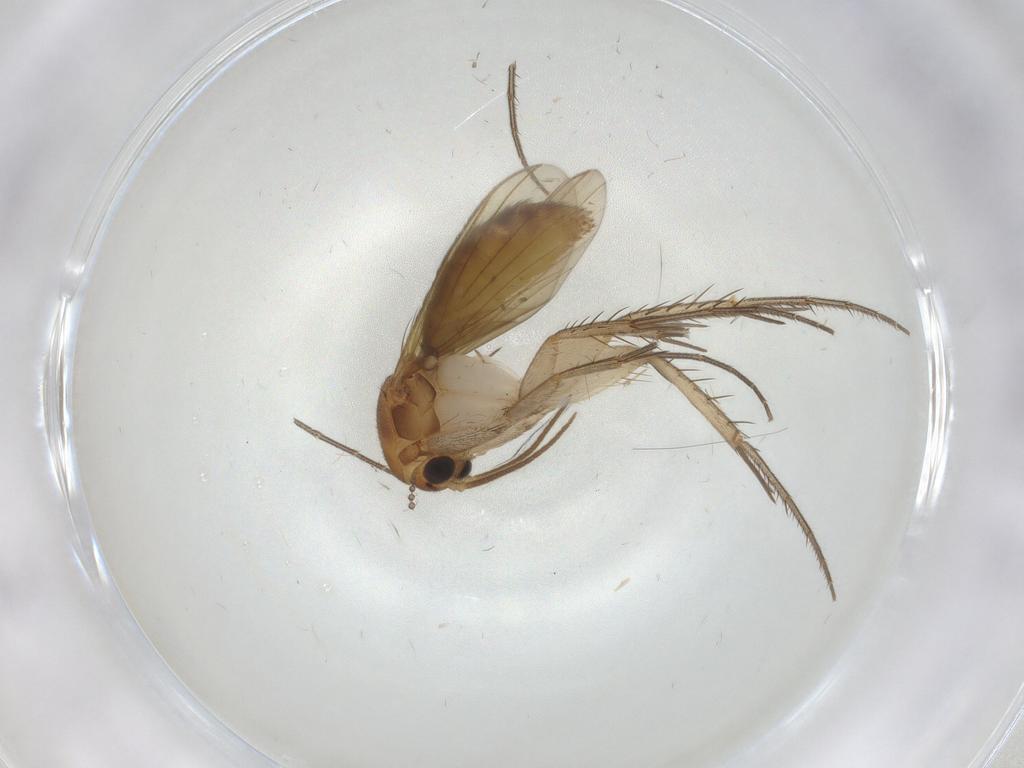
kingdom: Animalia
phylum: Arthropoda
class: Insecta
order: Diptera
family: Mycetophilidae
